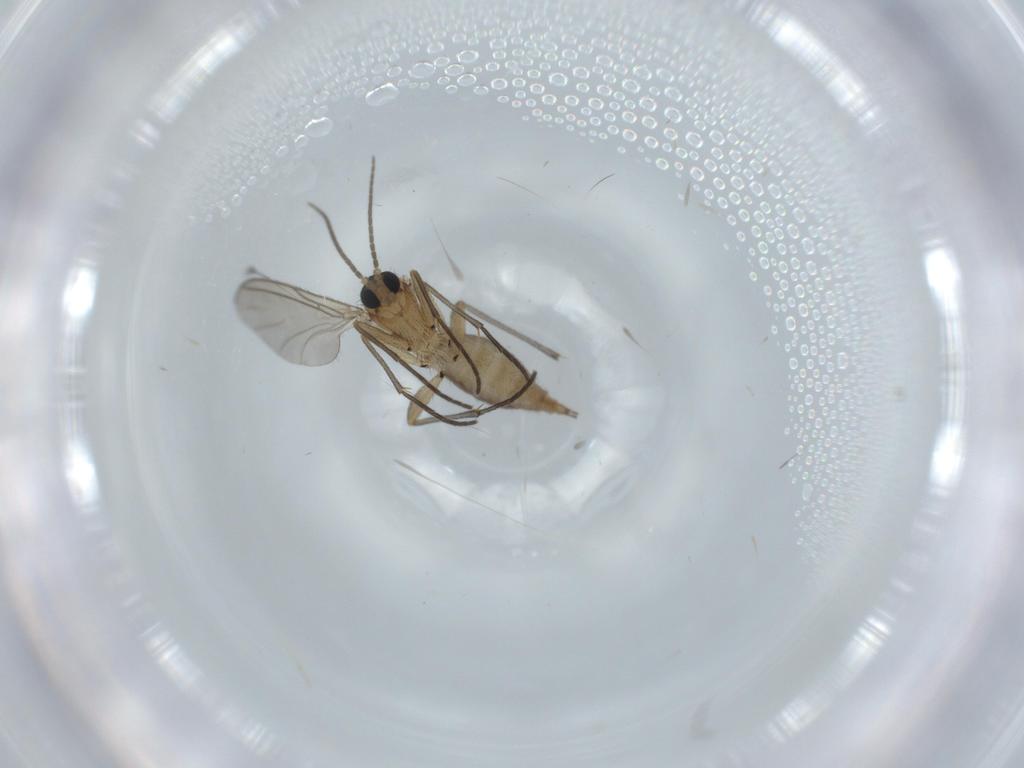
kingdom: Animalia
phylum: Arthropoda
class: Insecta
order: Diptera
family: Sciaridae
